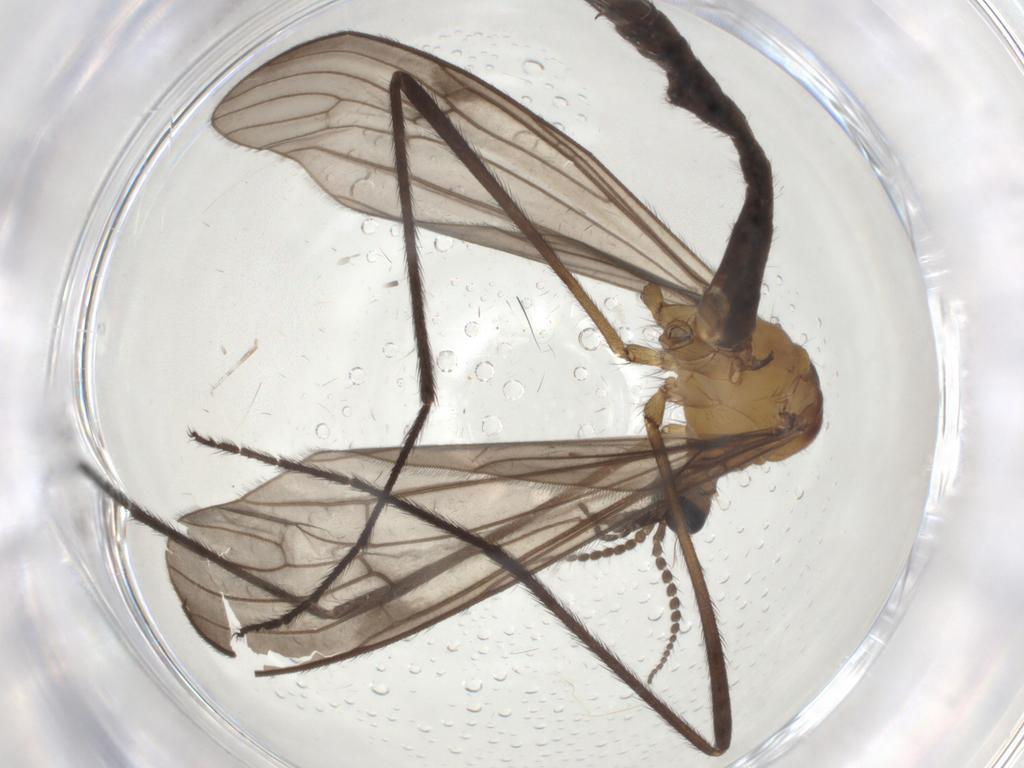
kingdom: Animalia
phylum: Arthropoda
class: Insecta
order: Diptera
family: Limoniidae
